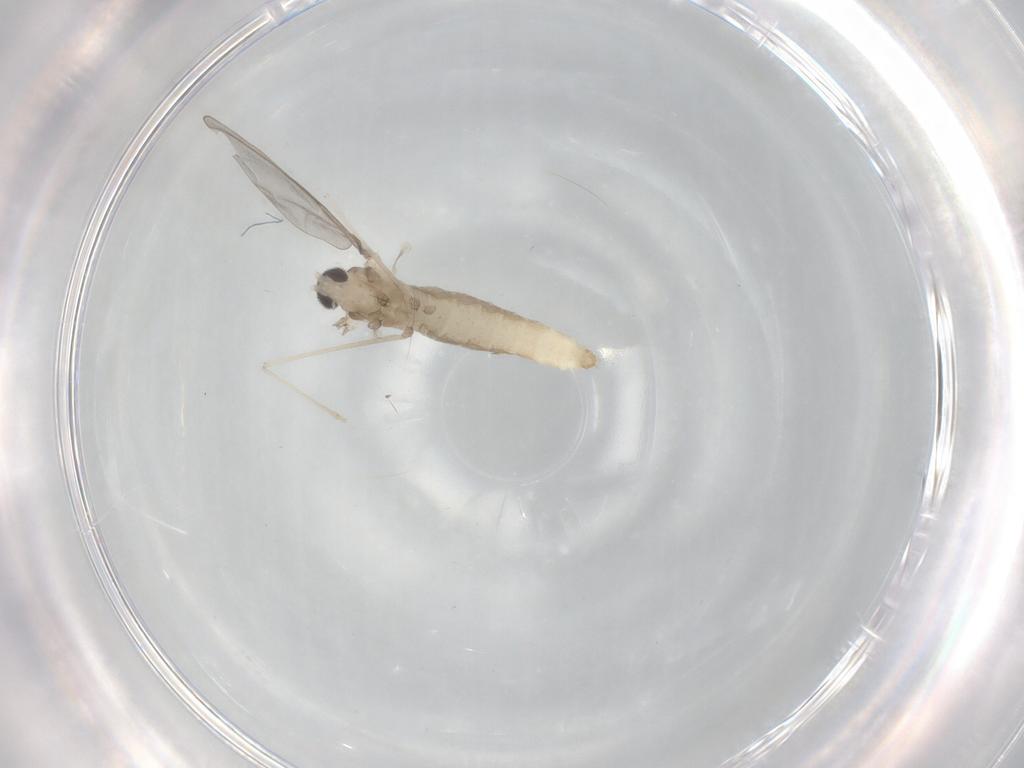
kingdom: Animalia
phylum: Arthropoda
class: Insecta
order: Diptera
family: Cecidomyiidae
